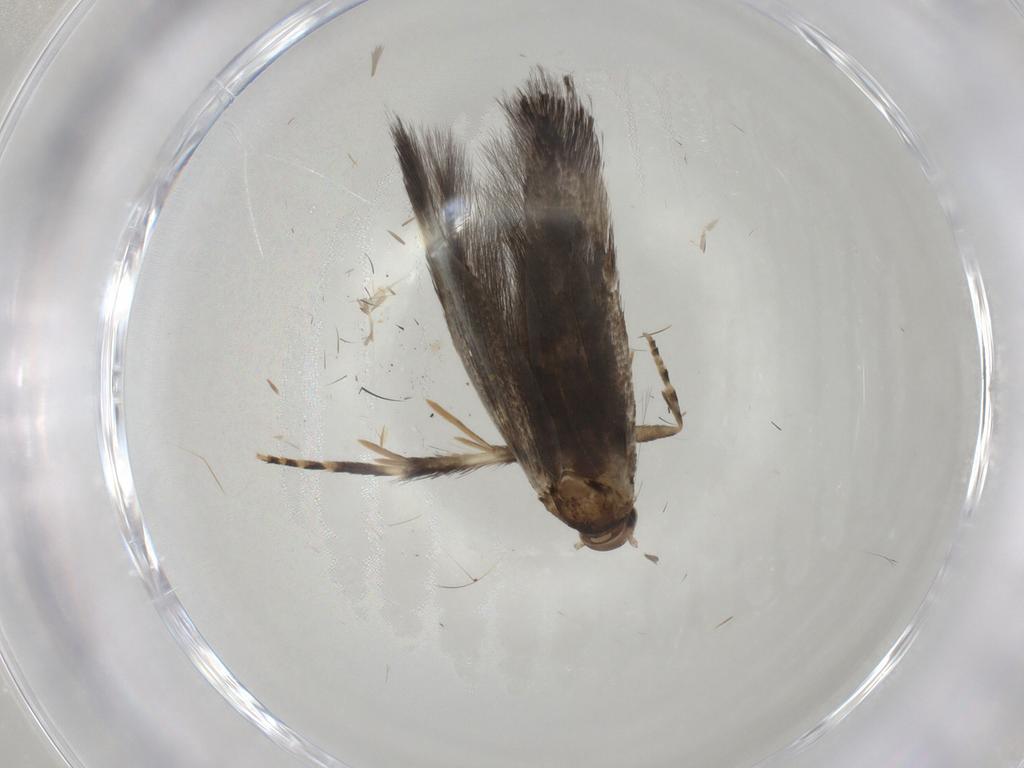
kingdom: Animalia
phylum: Arthropoda
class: Insecta
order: Lepidoptera
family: Elachistidae
